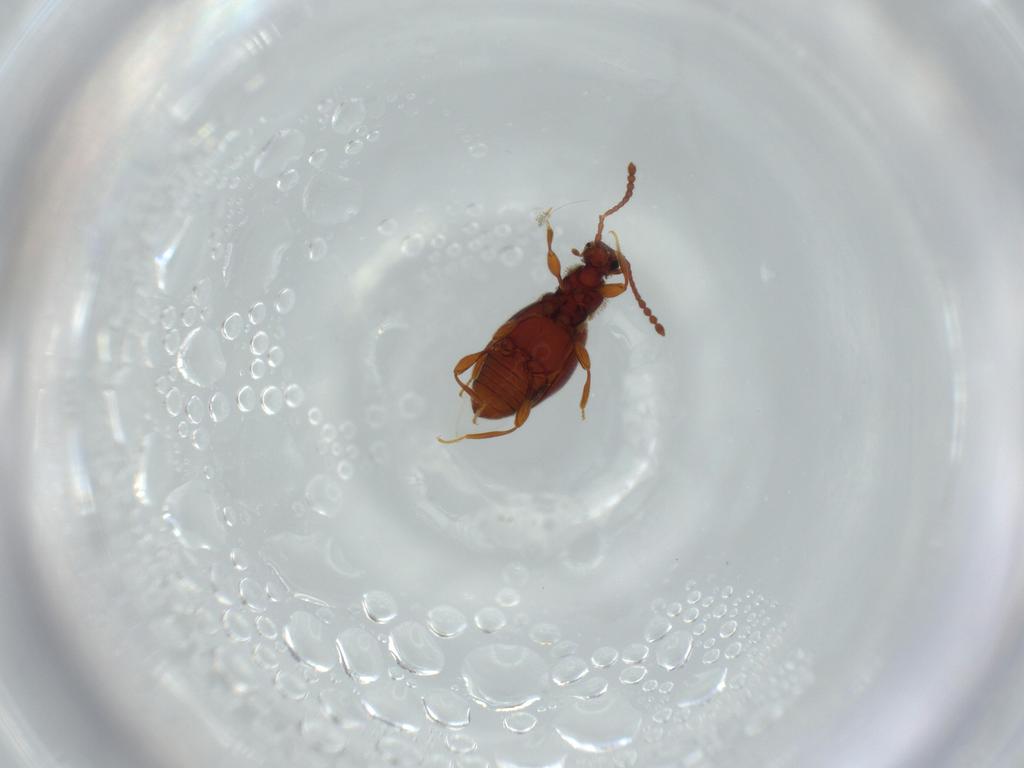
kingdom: Animalia
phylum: Arthropoda
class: Insecta
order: Coleoptera
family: Staphylinidae
